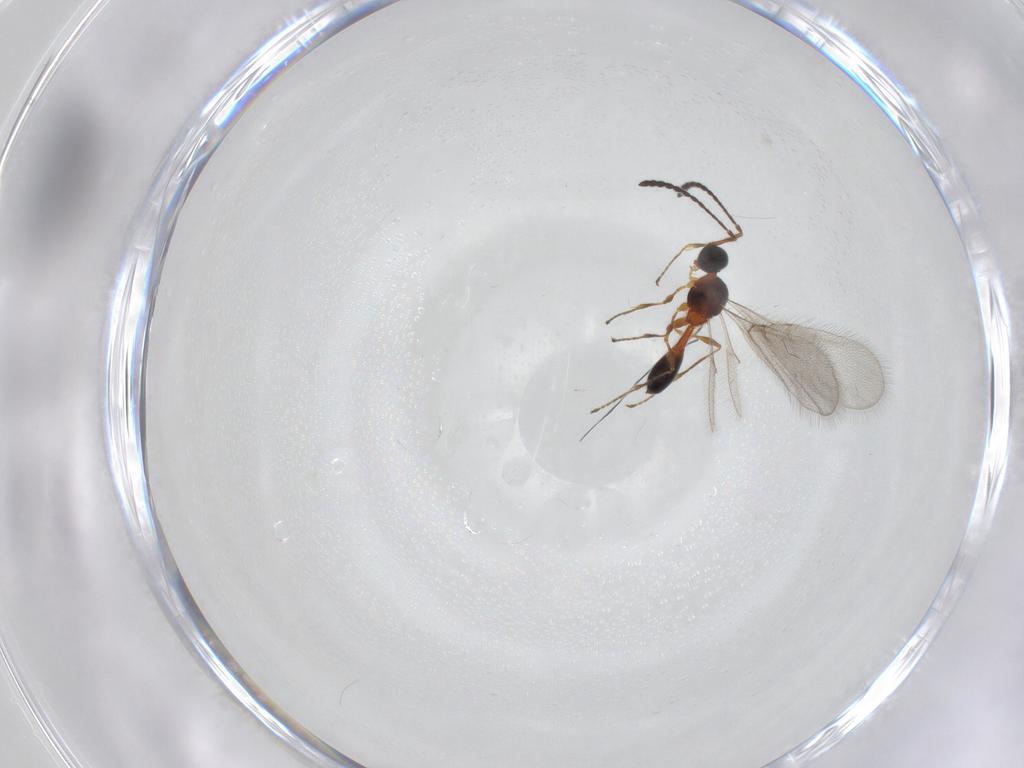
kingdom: Animalia
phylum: Arthropoda
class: Insecta
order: Hymenoptera
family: Diapriidae
